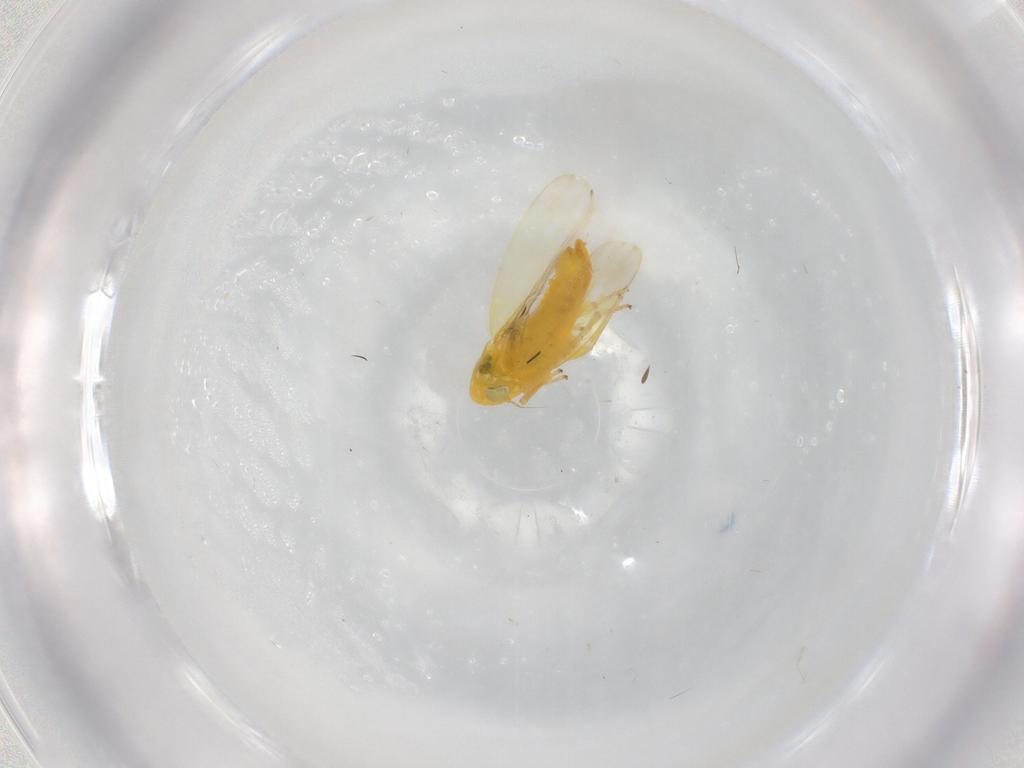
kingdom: Animalia
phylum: Arthropoda
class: Insecta
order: Hemiptera
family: Cicadellidae
